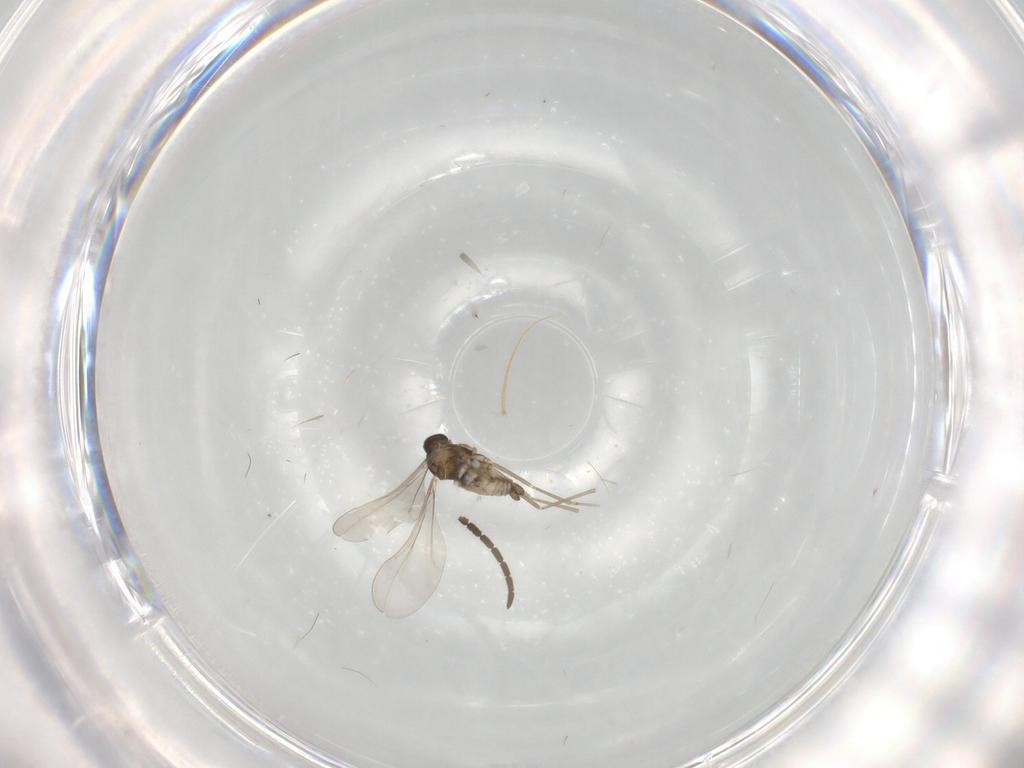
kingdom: Animalia
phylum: Arthropoda
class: Insecta
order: Diptera
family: Cecidomyiidae
